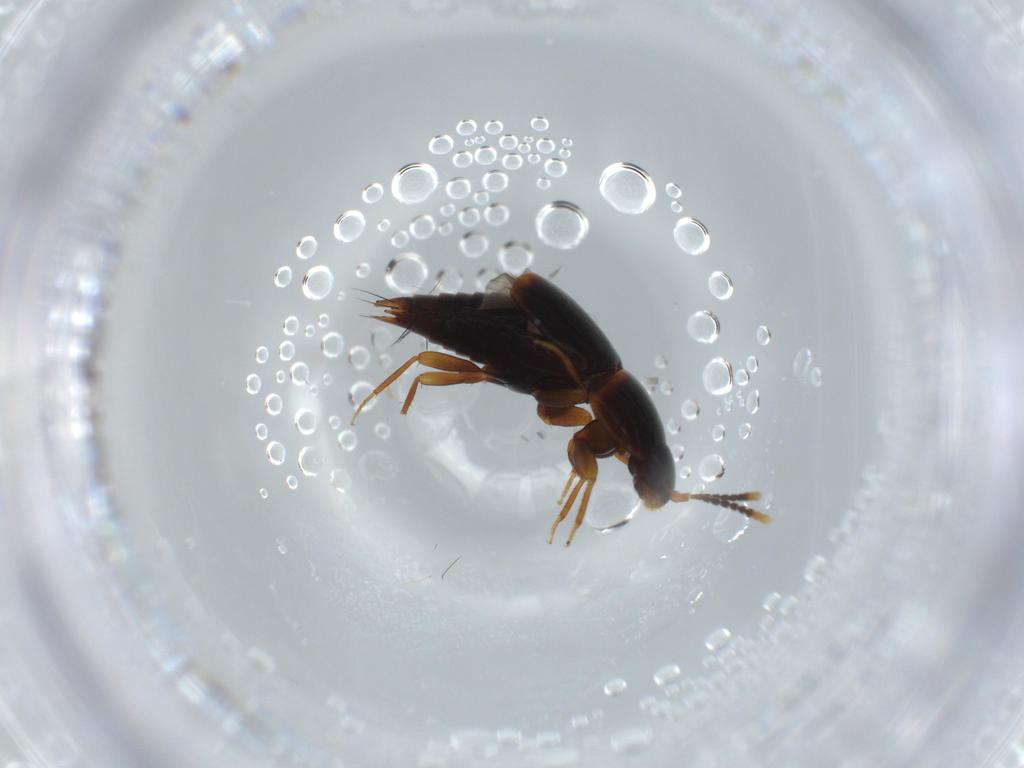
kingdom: Animalia
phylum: Arthropoda
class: Insecta
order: Coleoptera
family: Staphylinidae
